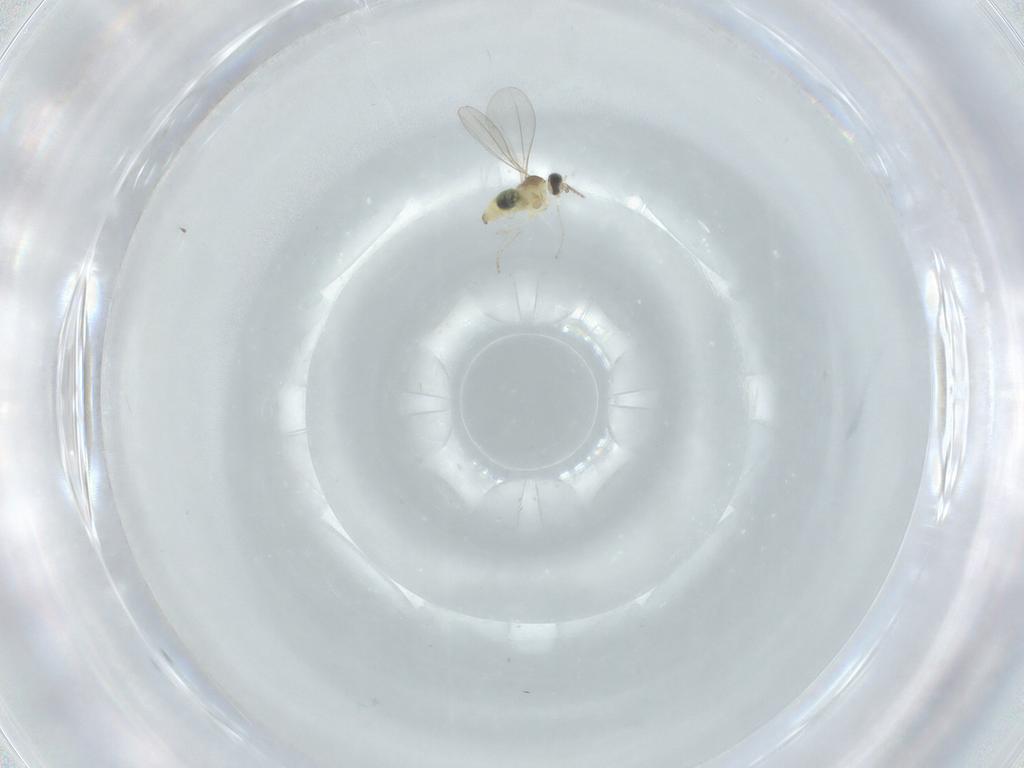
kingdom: Animalia
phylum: Arthropoda
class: Insecta
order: Diptera
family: Cecidomyiidae
